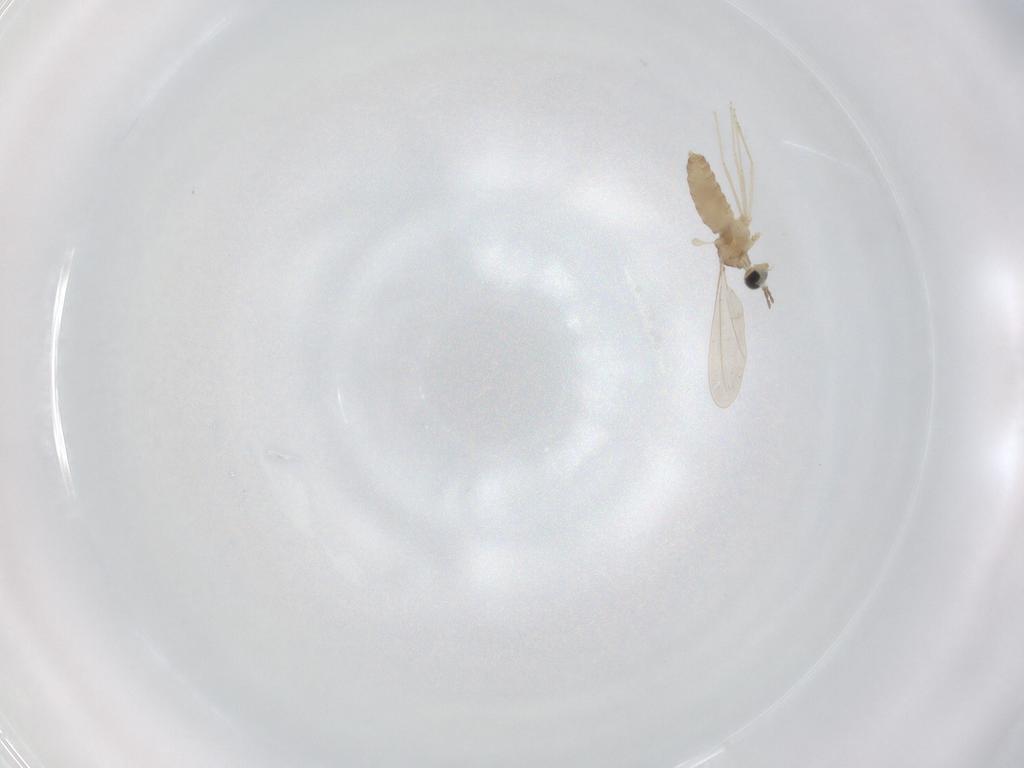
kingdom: Animalia
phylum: Arthropoda
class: Insecta
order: Diptera
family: Cecidomyiidae
